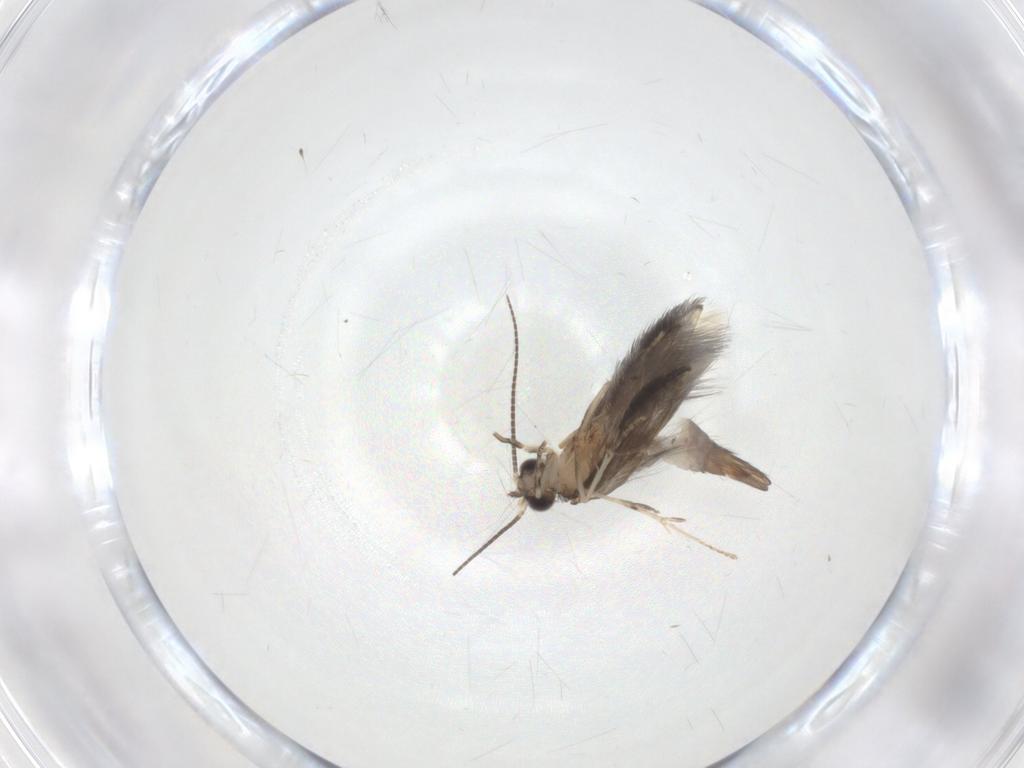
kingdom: Animalia
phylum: Arthropoda
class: Insecta
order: Trichoptera
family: Hydroptilidae
